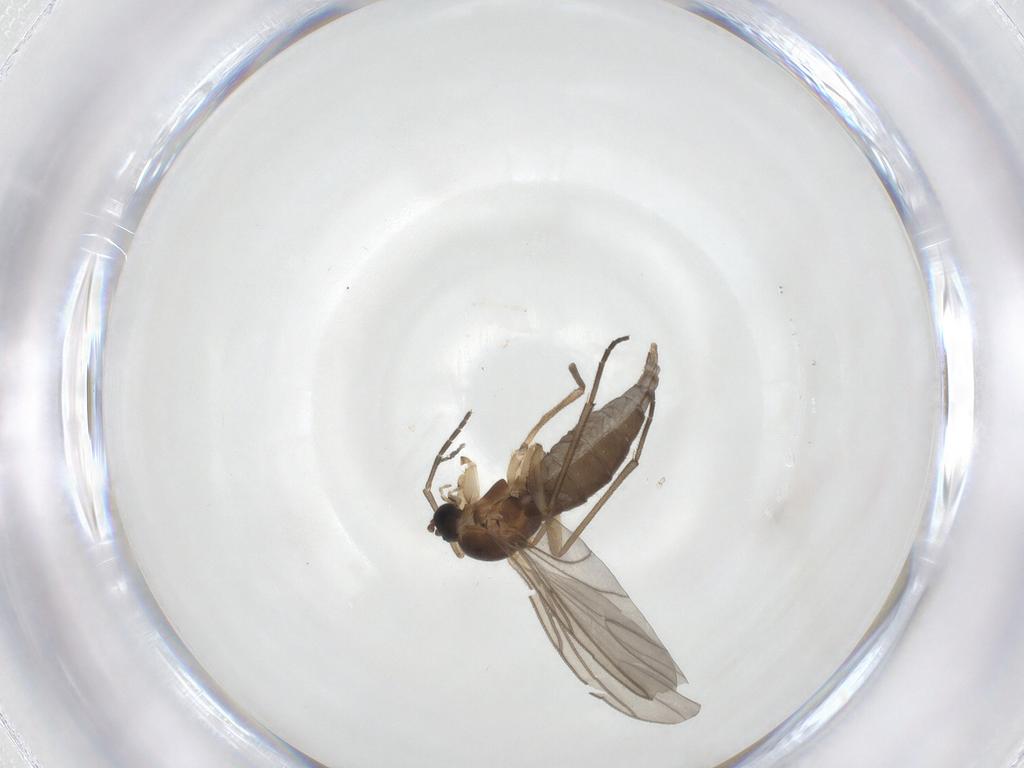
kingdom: Animalia
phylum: Arthropoda
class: Insecta
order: Diptera
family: Sciaridae
